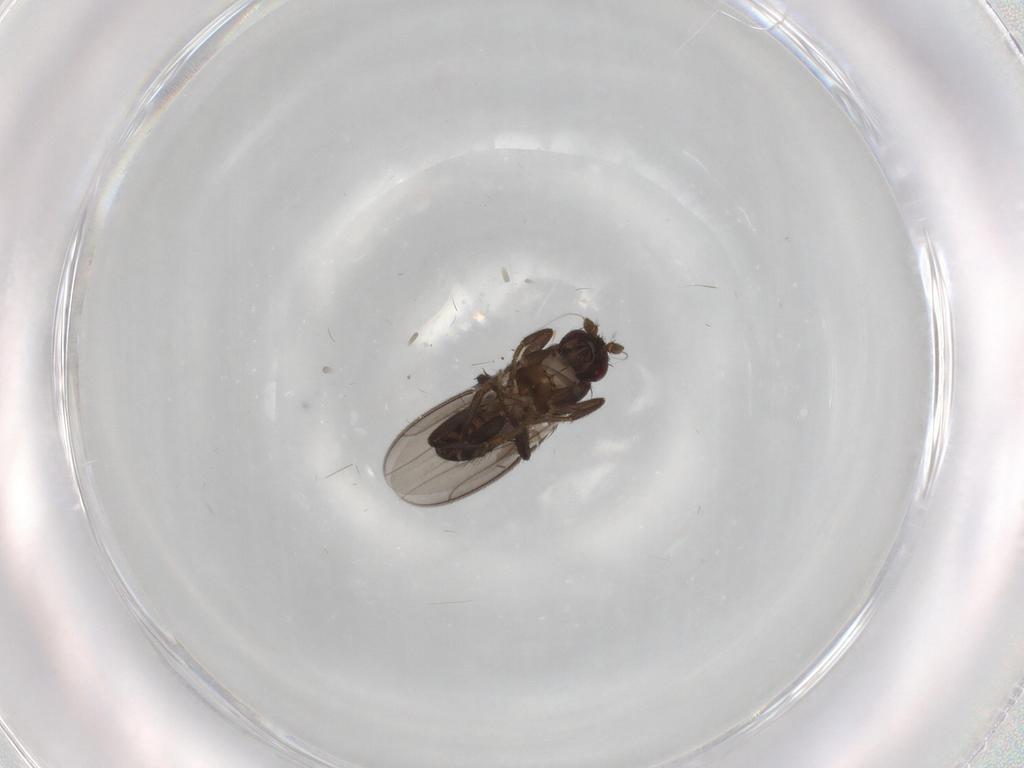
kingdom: Animalia
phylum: Arthropoda
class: Insecta
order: Diptera
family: Sphaeroceridae
